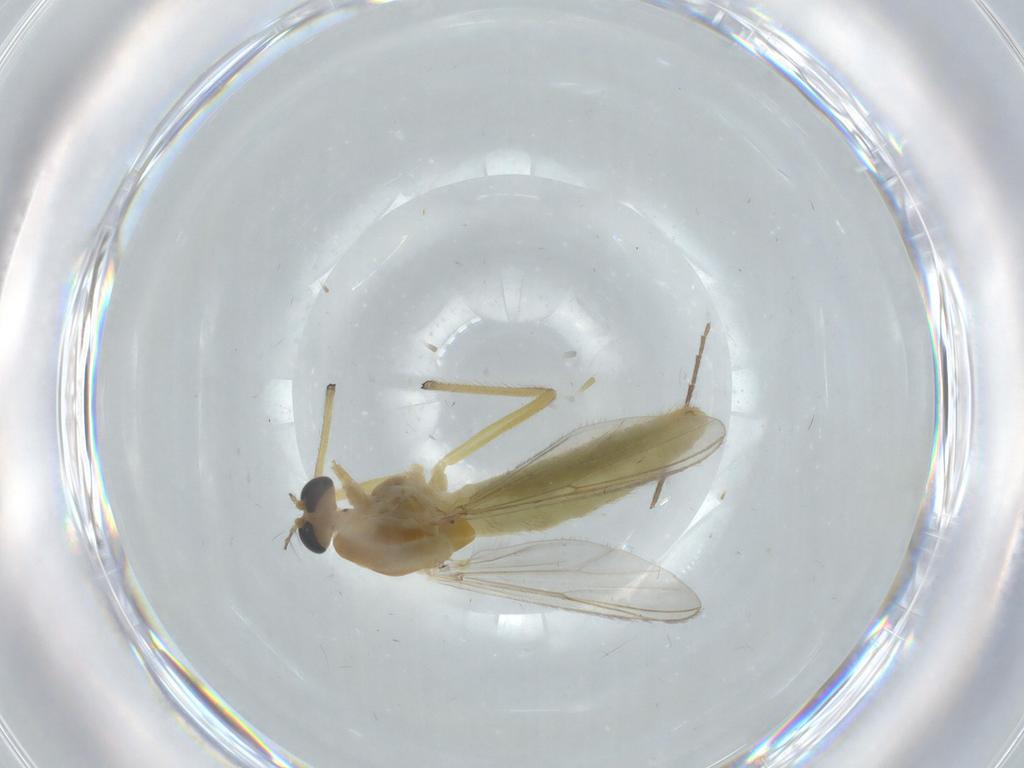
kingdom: Animalia
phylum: Arthropoda
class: Insecta
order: Diptera
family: Chironomidae
